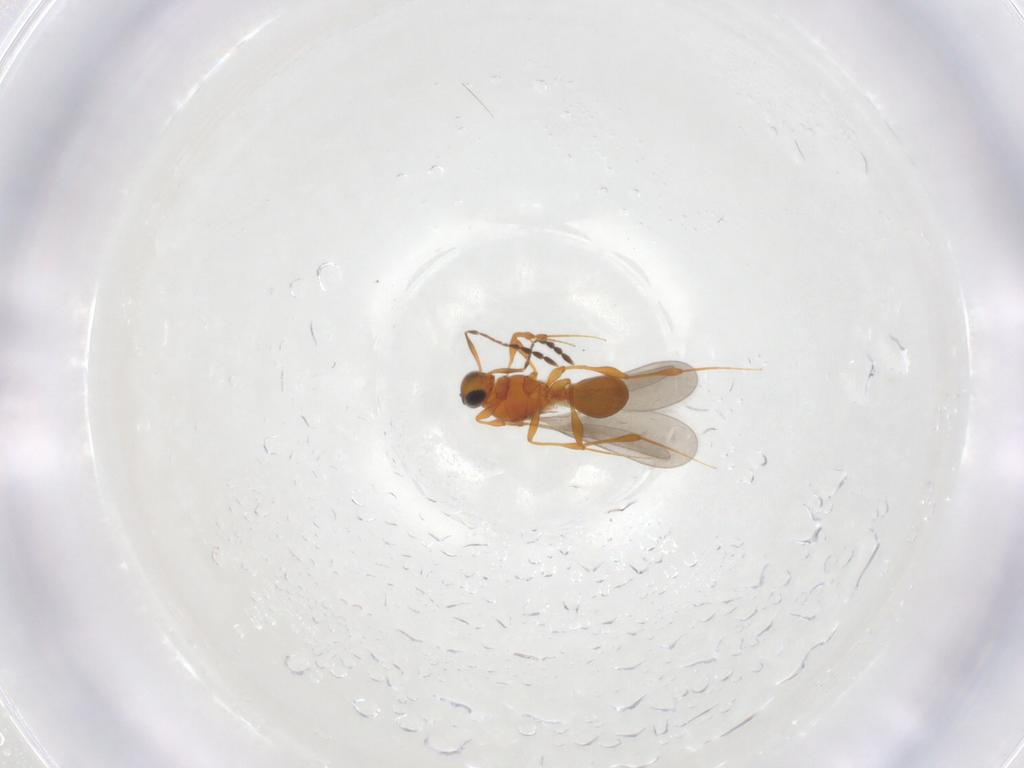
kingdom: Animalia
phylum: Arthropoda
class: Insecta
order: Hymenoptera
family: Platygastridae
